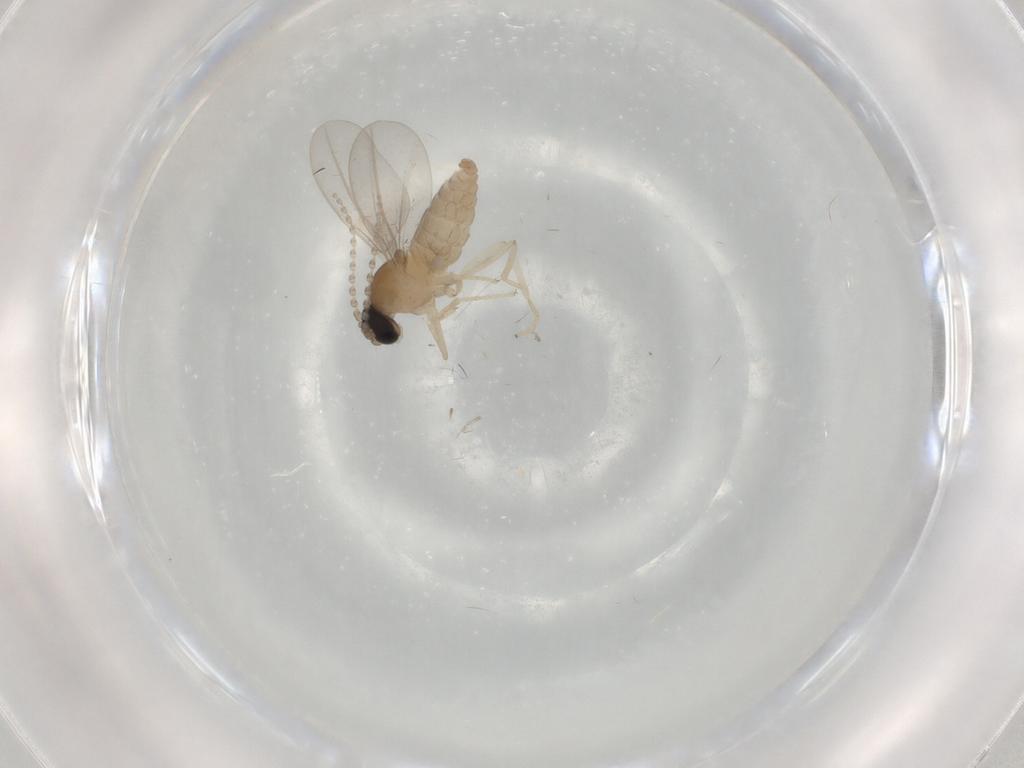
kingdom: Animalia
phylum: Arthropoda
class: Insecta
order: Diptera
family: Cecidomyiidae
